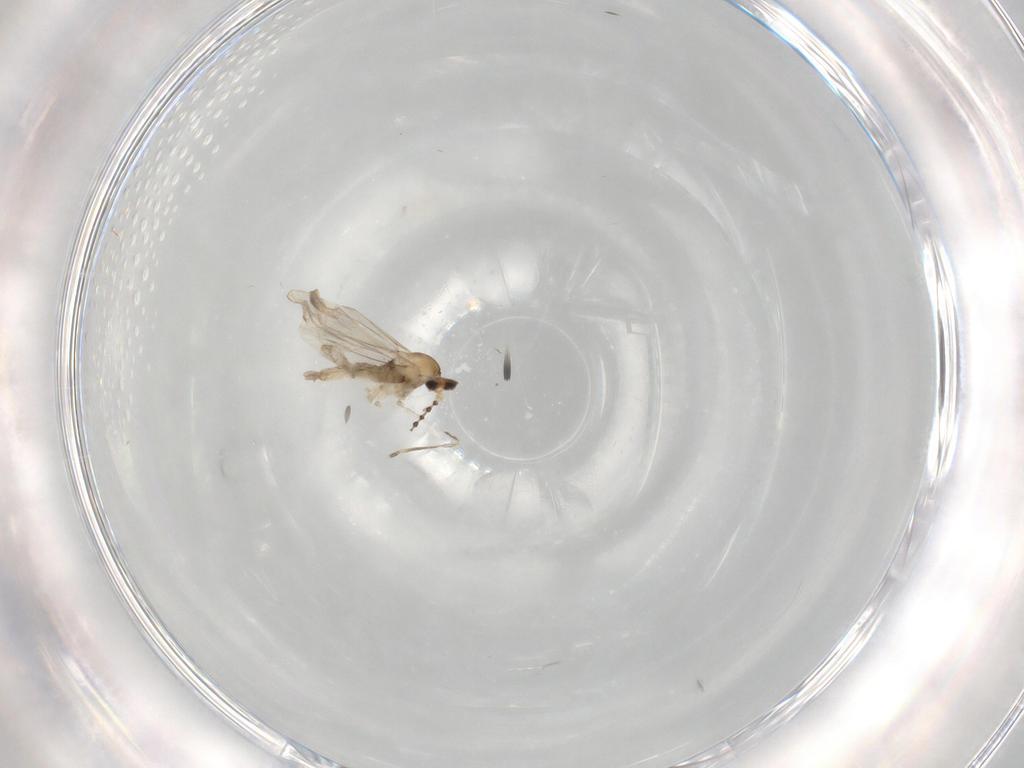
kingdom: Animalia
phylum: Arthropoda
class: Insecta
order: Diptera
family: Cecidomyiidae
